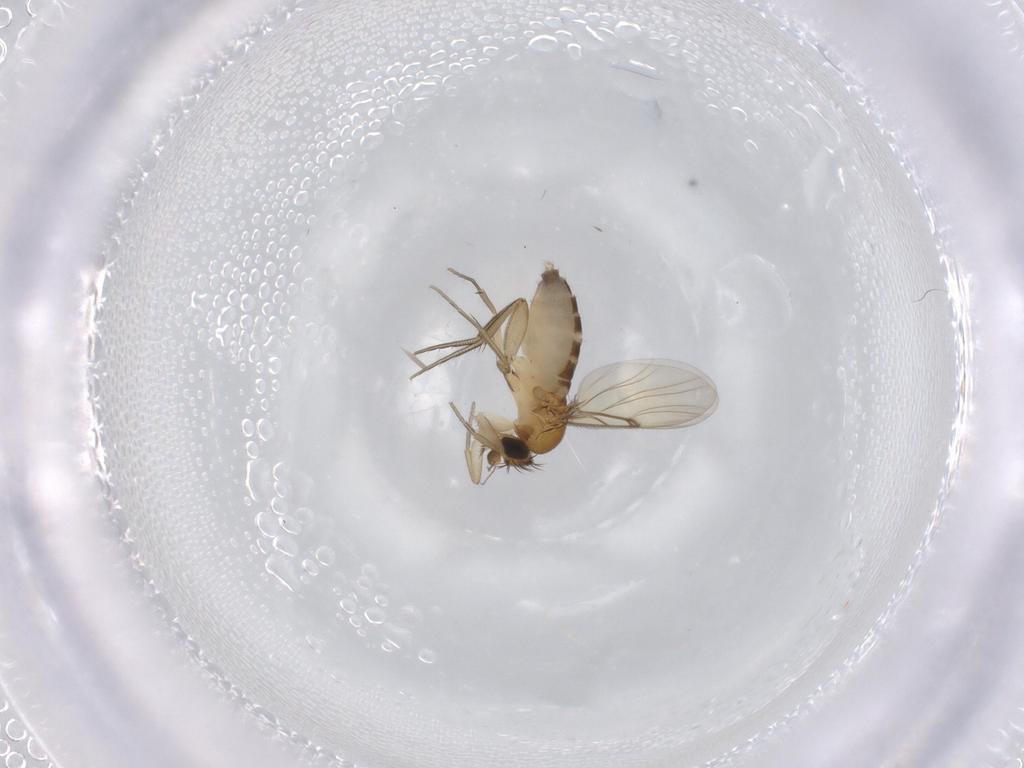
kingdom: Animalia
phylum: Arthropoda
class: Insecta
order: Diptera
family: Phoridae
